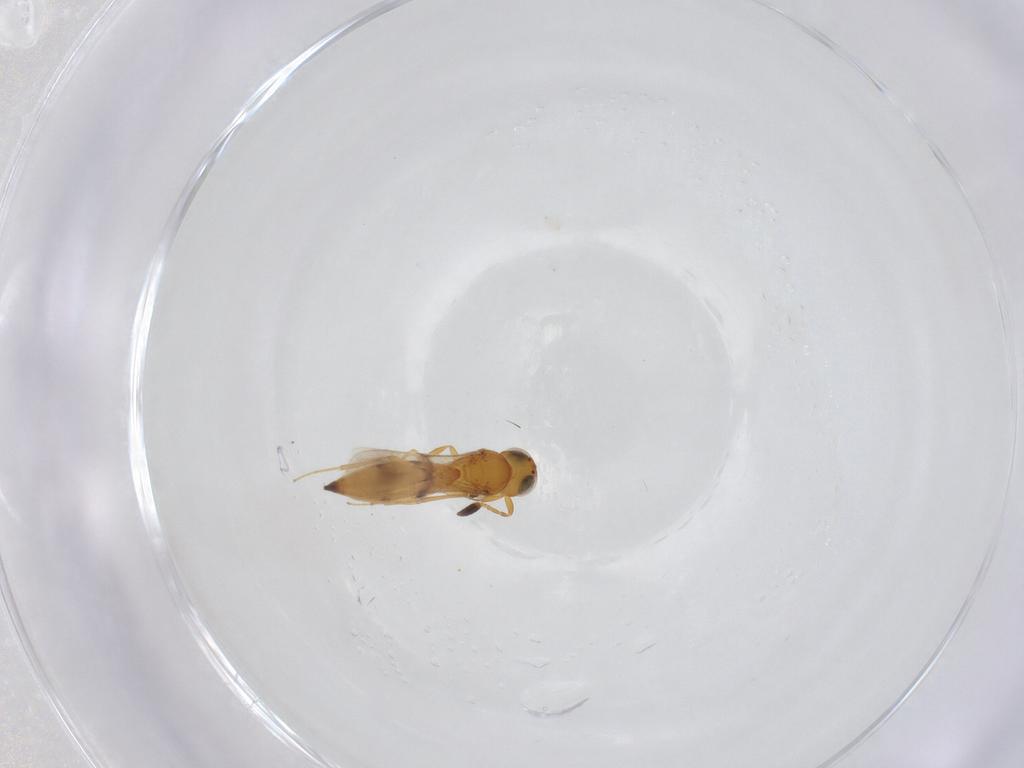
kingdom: Animalia
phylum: Arthropoda
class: Insecta
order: Hymenoptera
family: Scelionidae
